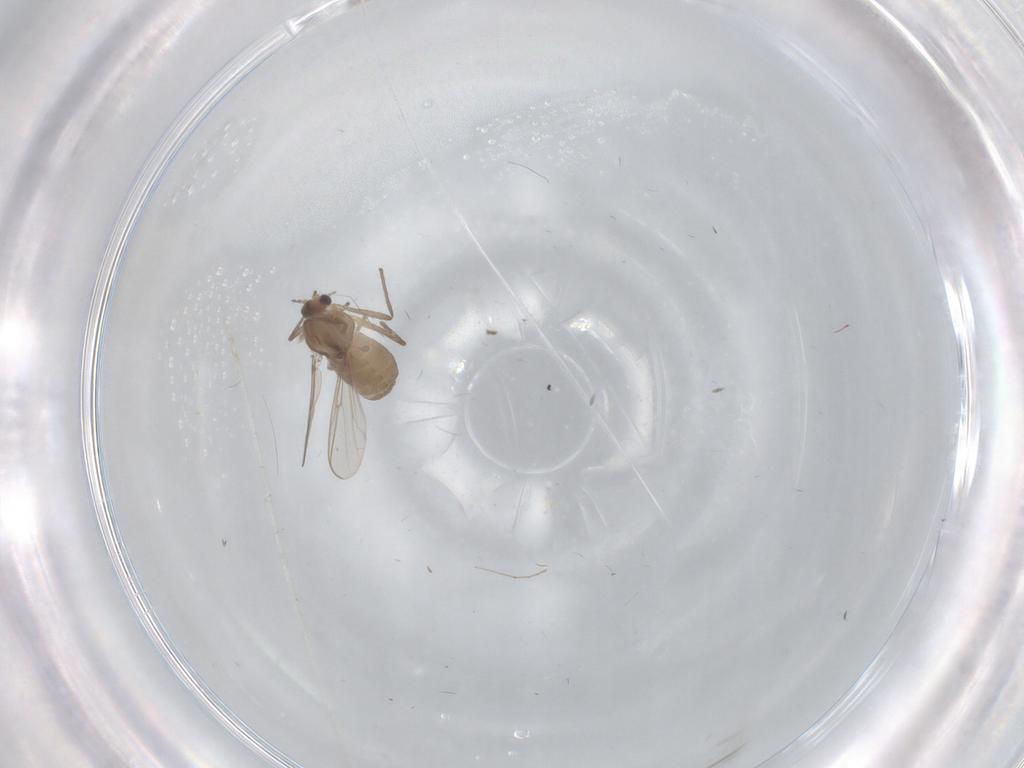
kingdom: Animalia
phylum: Arthropoda
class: Insecta
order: Diptera
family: Chironomidae
